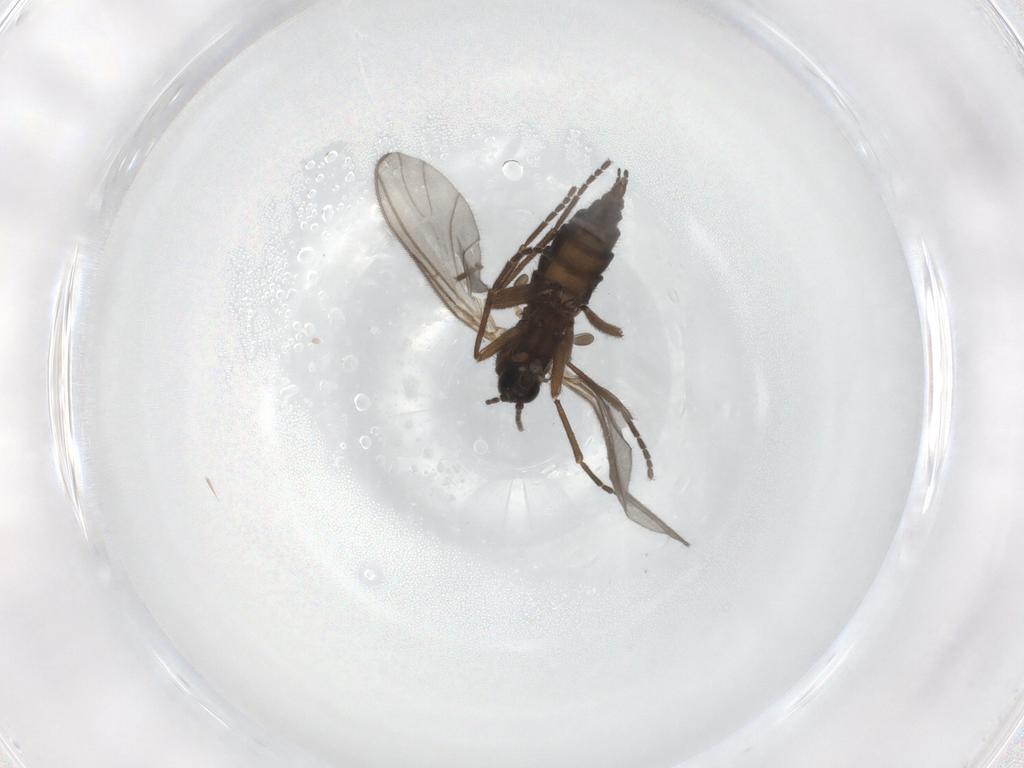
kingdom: Animalia
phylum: Arthropoda
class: Insecta
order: Diptera
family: Sciaridae
